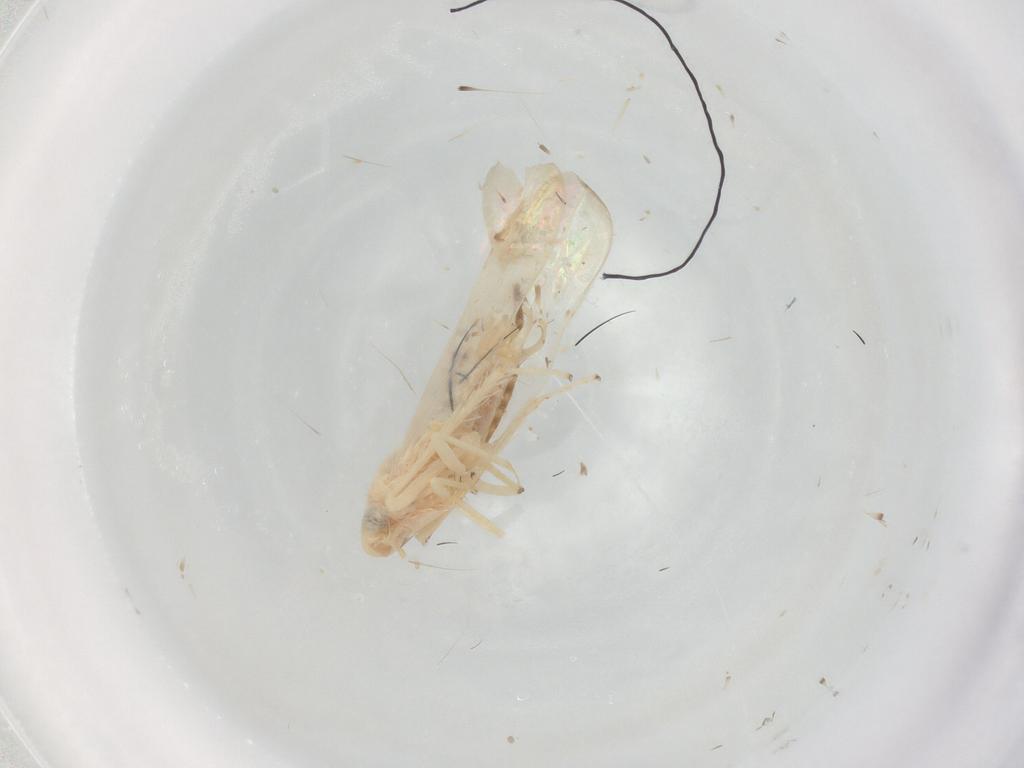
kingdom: Animalia
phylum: Arthropoda
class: Insecta
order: Hemiptera
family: Cicadellidae
